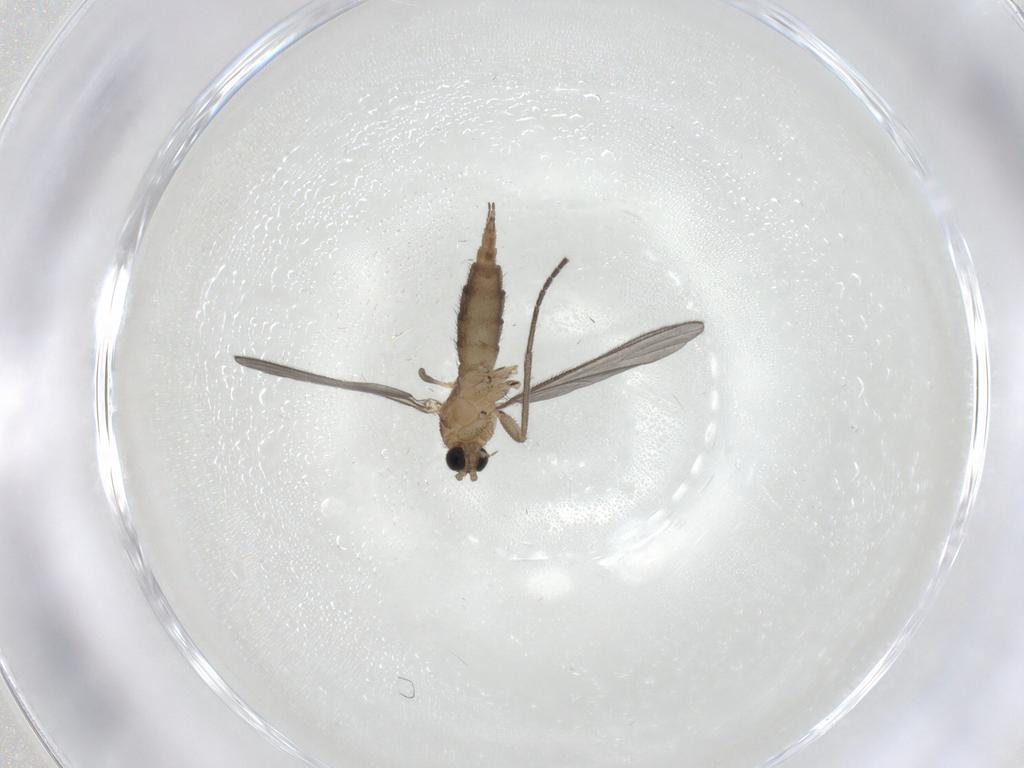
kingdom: Animalia
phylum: Arthropoda
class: Insecta
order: Diptera
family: Sciaridae
